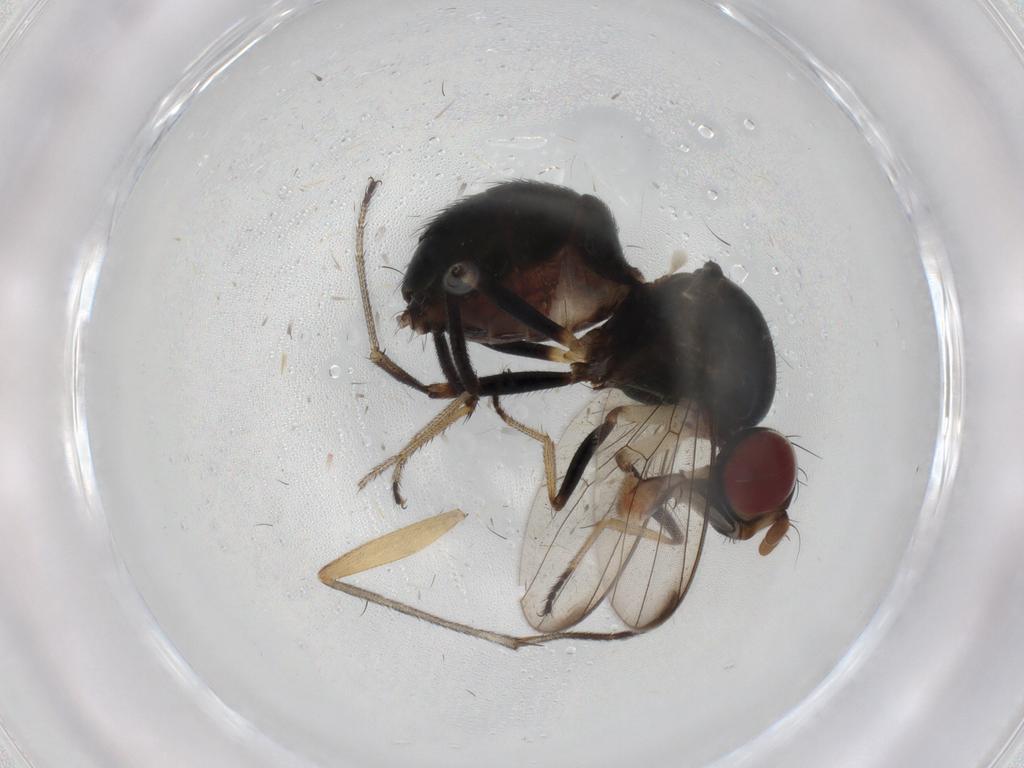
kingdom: Animalia
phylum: Arthropoda
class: Insecta
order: Diptera
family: Sepsidae
